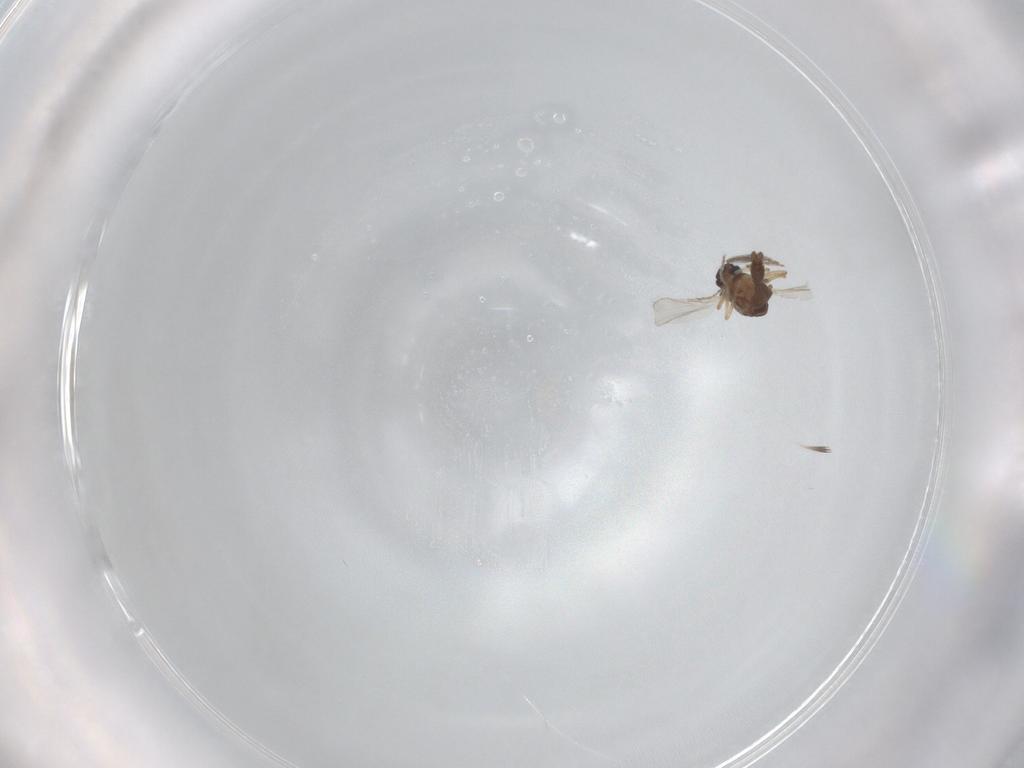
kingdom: Animalia
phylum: Arthropoda
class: Insecta
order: Diptera
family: Ceratopogonidae
